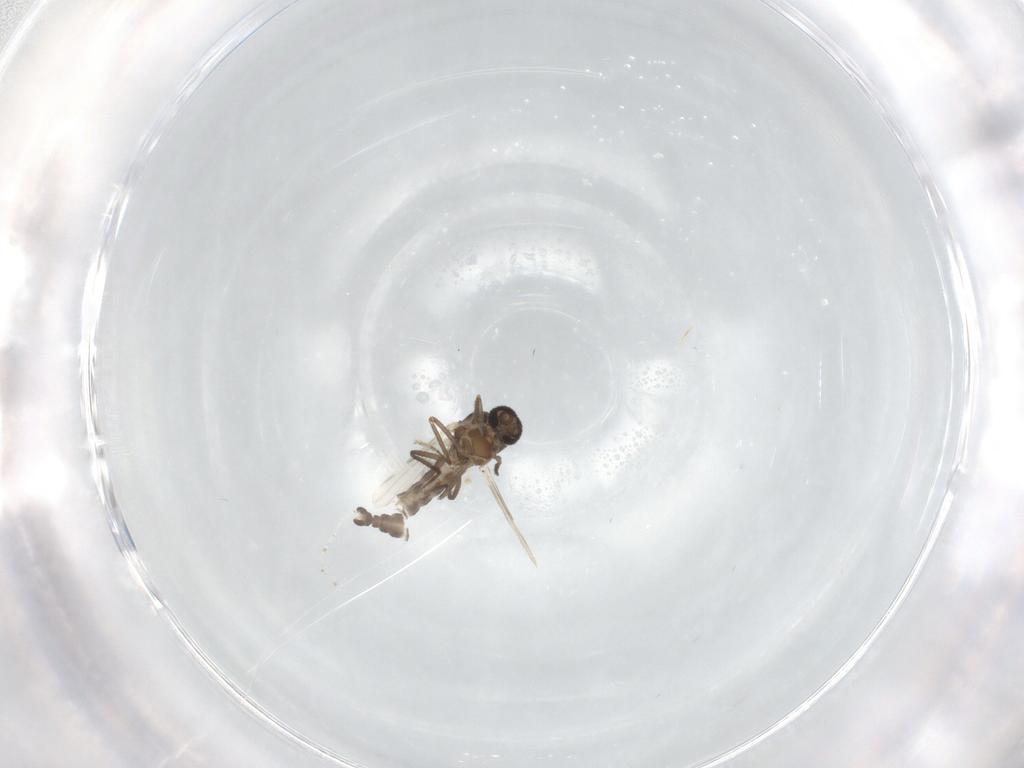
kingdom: Animalia
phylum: Arthropoda
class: Insecta
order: Diptera
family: Ceratopogonidae
